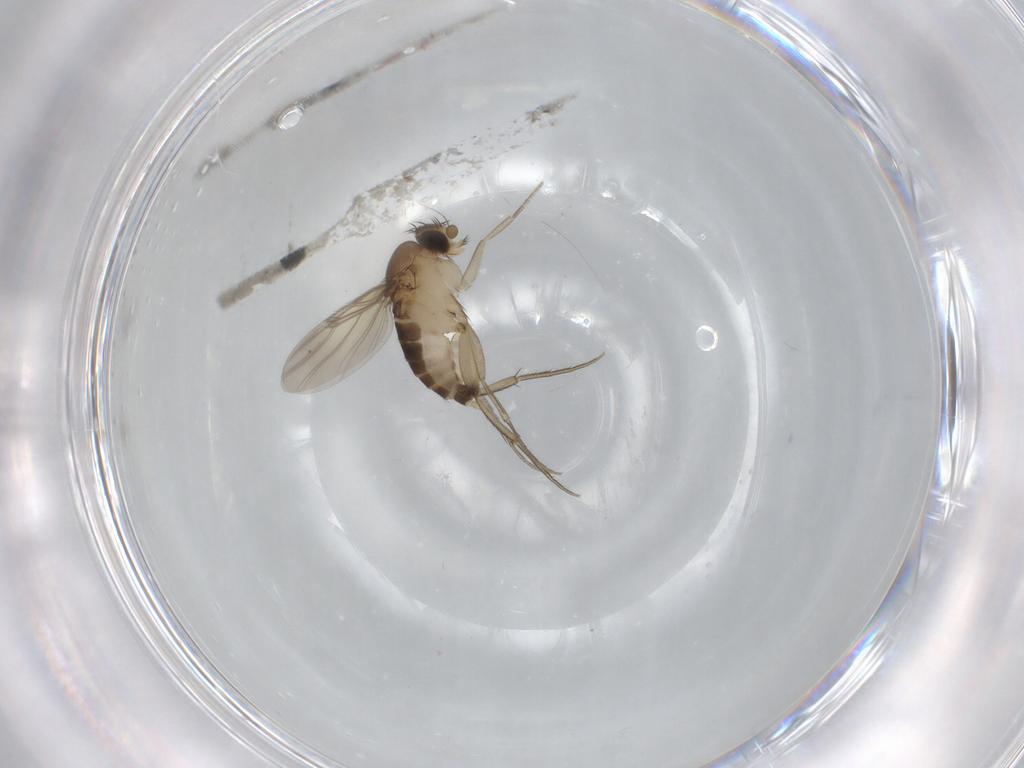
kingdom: Animalia
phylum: Arthropoda
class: Insecta
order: Diptera
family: Phoridae
